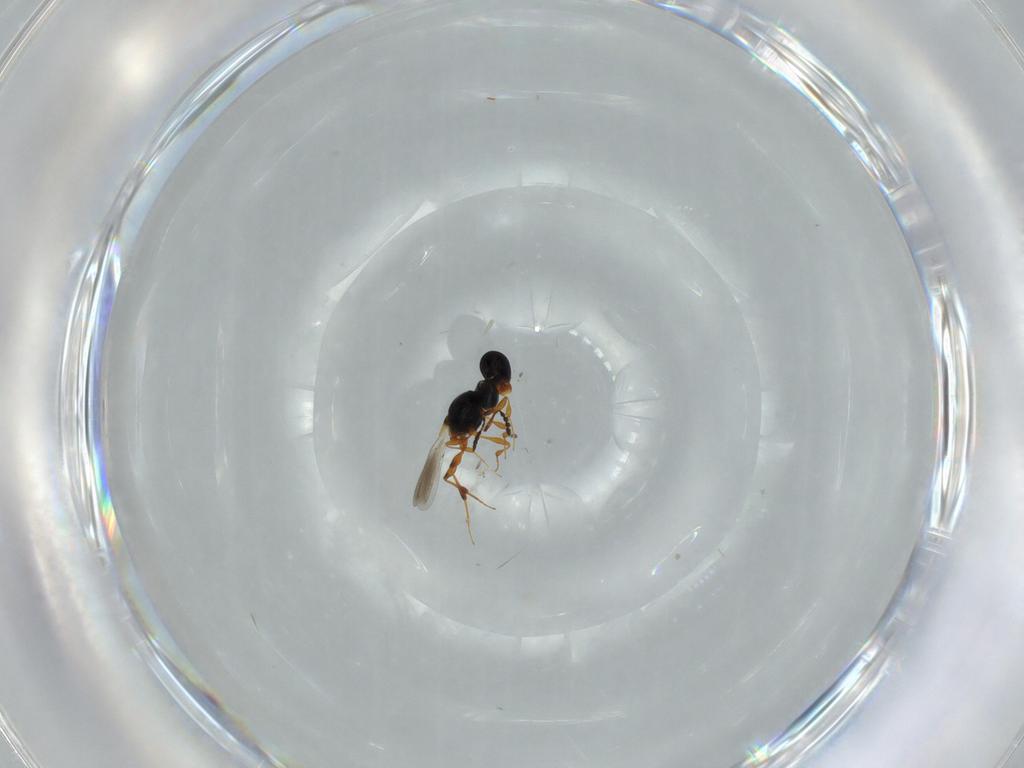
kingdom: Animalia
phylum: Arthropoda
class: Insecta
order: Hymenoptera
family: Platygastridae
